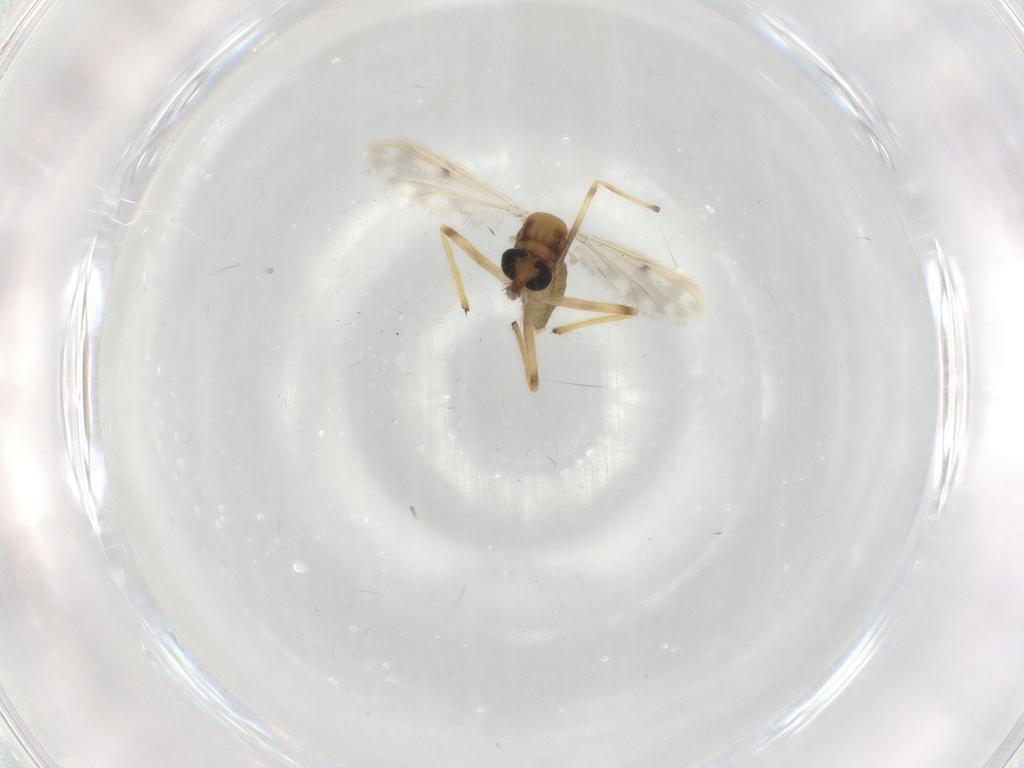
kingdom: Animalia
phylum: Arthropoda
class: Insecta
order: Diptera
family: Chironomidae
